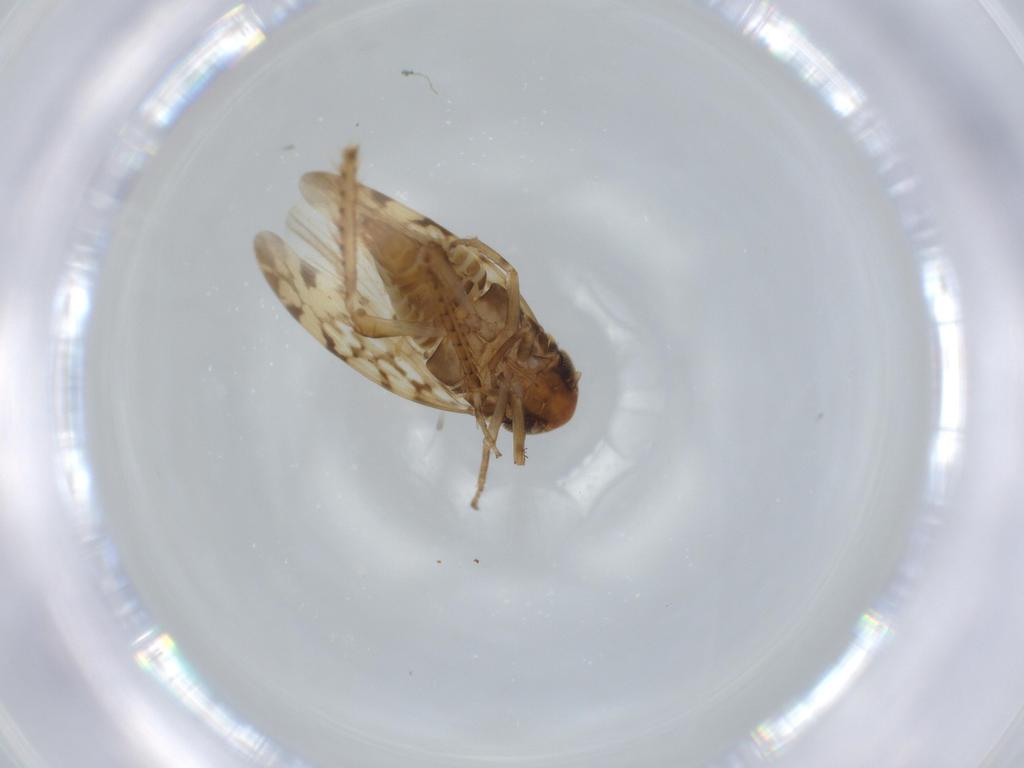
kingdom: Animalia
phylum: Arthropoda
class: Insecta
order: Hemiptera
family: Cicadellidae
